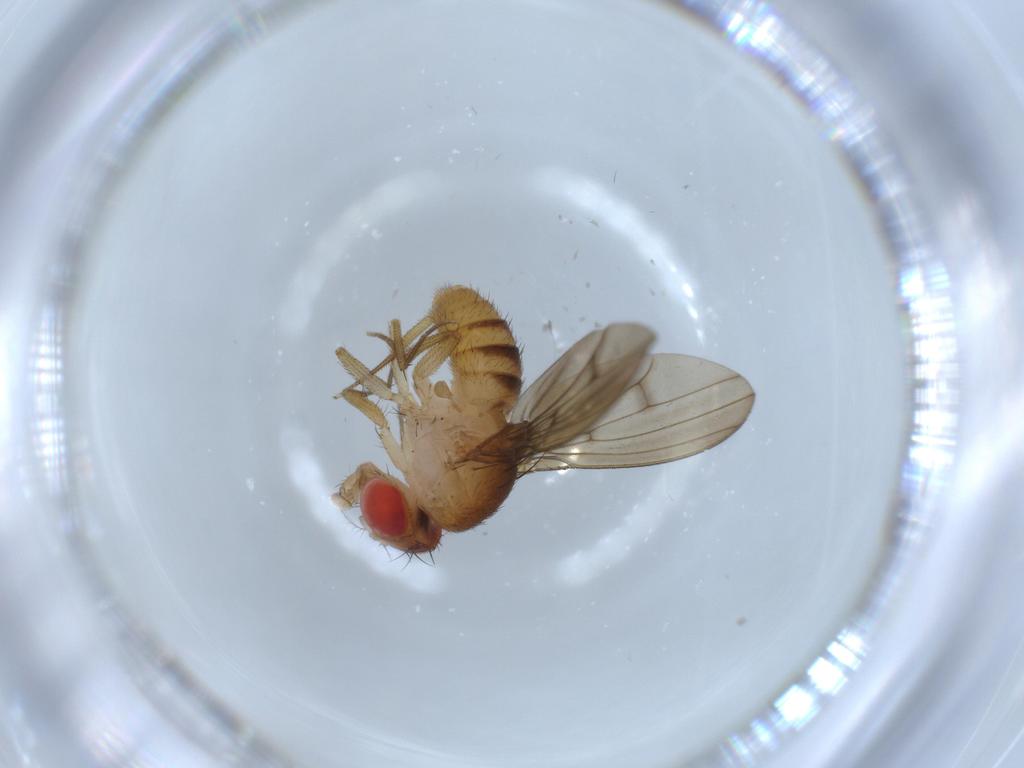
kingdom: Animalia
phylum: Arthropoda
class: Insecta
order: Diptera
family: Drosophilidae
